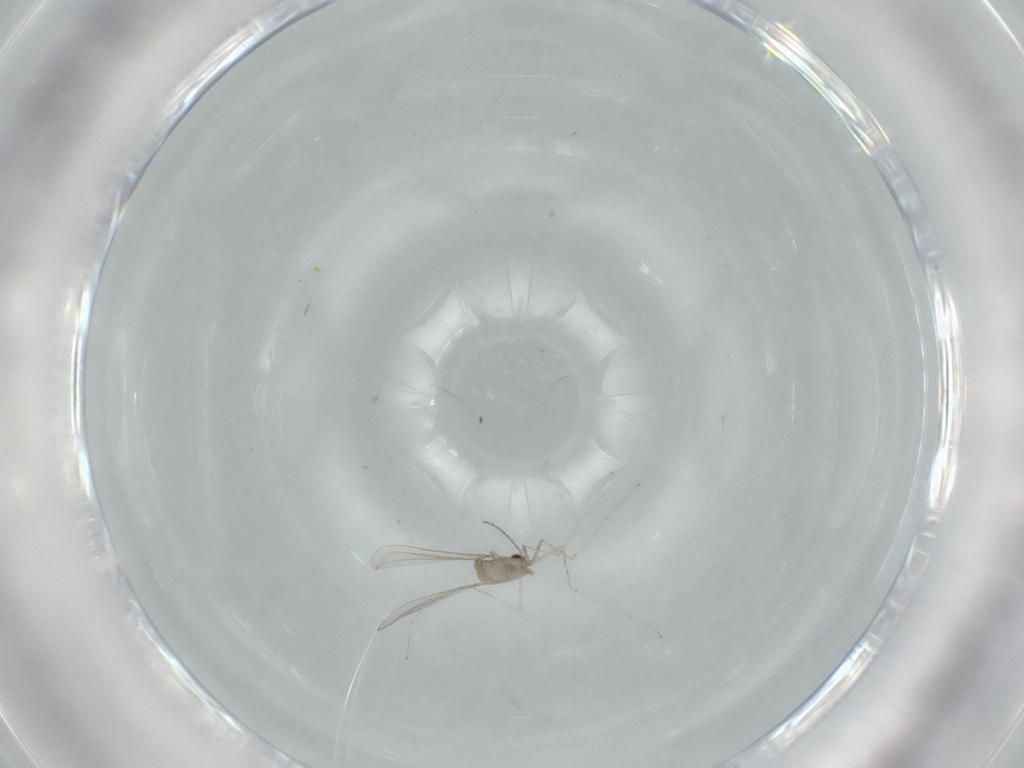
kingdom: Animalia
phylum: Arthropoda
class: Insecta
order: Diptera
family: Cecidomyiidae
